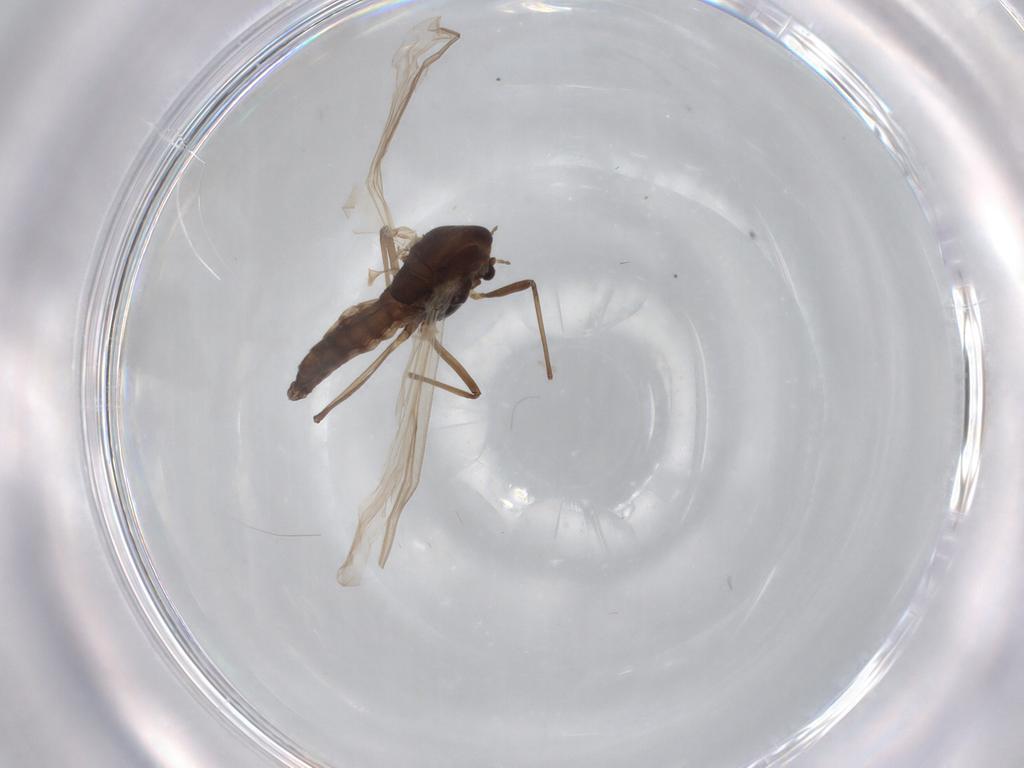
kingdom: Animalia
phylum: Arthropoda
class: Insecta
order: Diptera
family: Chironomidae
